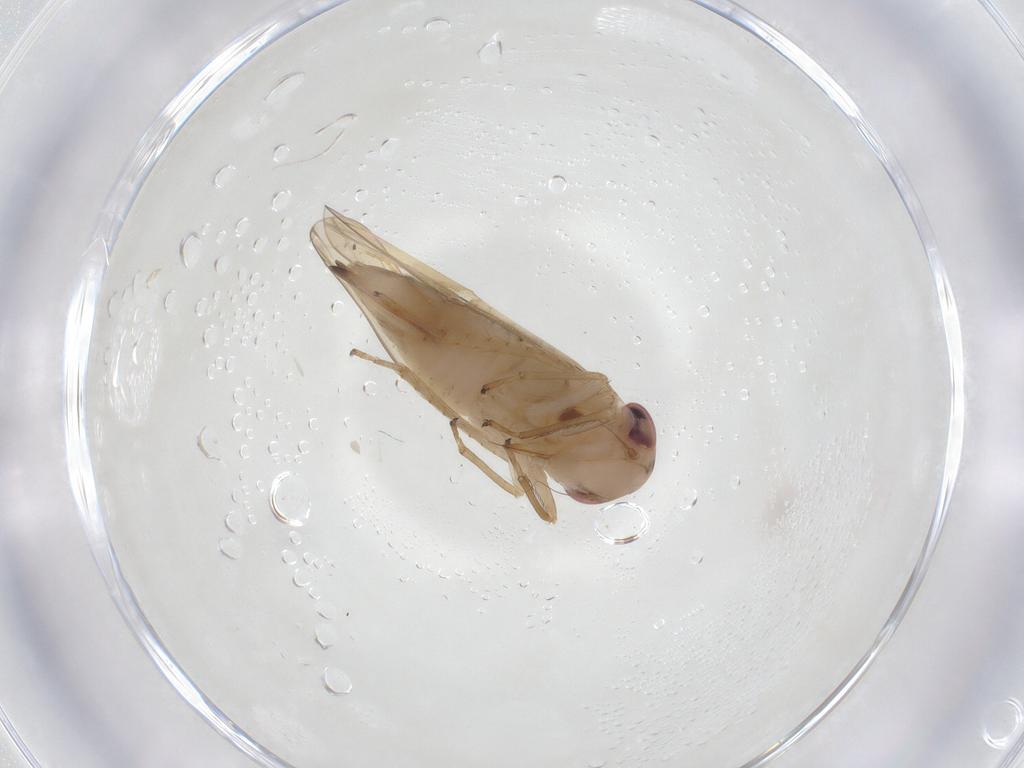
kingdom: Animalia
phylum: Arthropoda
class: Insecta
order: Hemiptera
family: Cicadellidae
